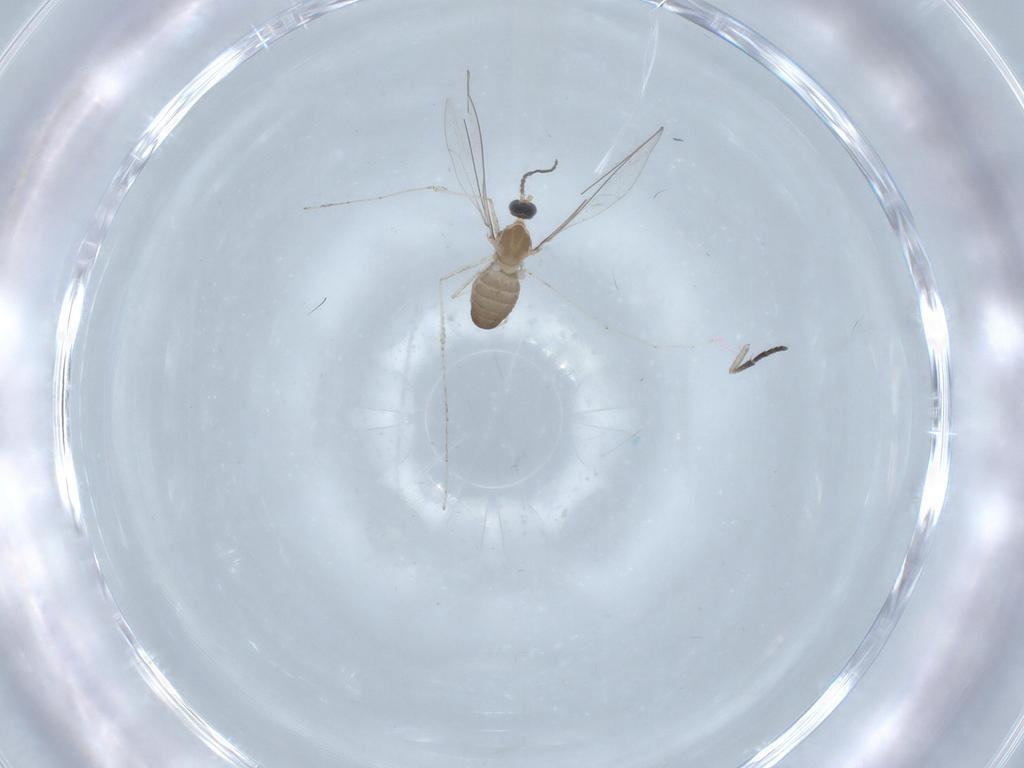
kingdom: Animalia
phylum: Arthropoda
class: Insecta
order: Diptera
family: Cecidomyiidae
